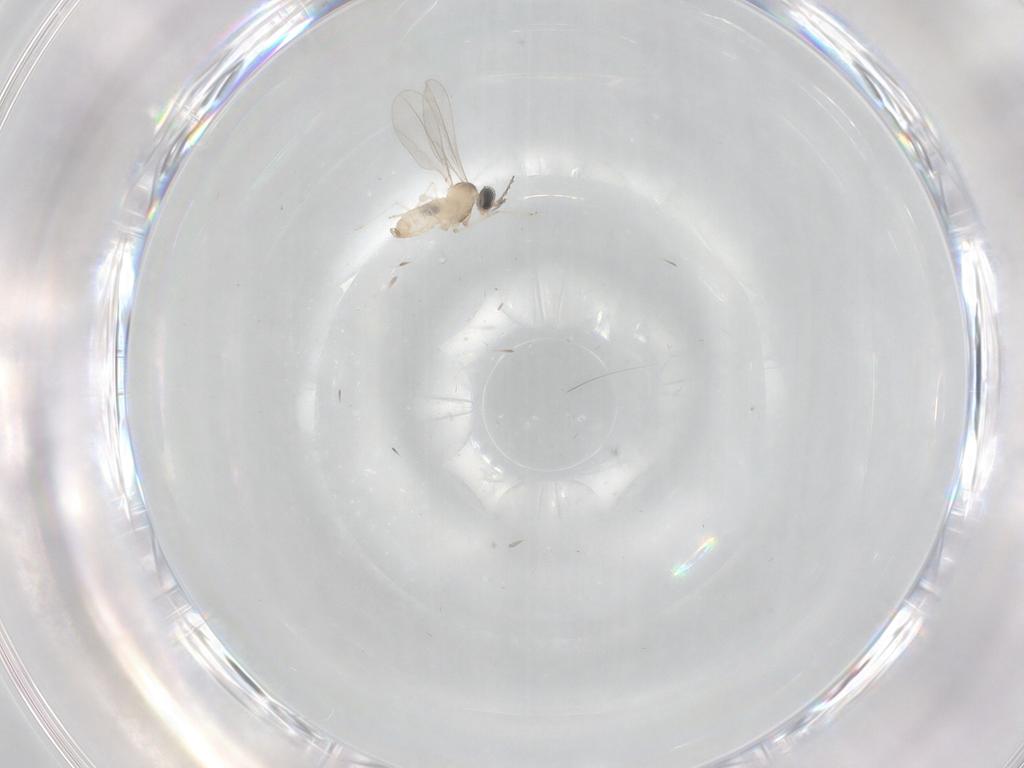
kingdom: Animalia
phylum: Arthropoda
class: Insecta
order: Diptera
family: Cecidomyiidae
